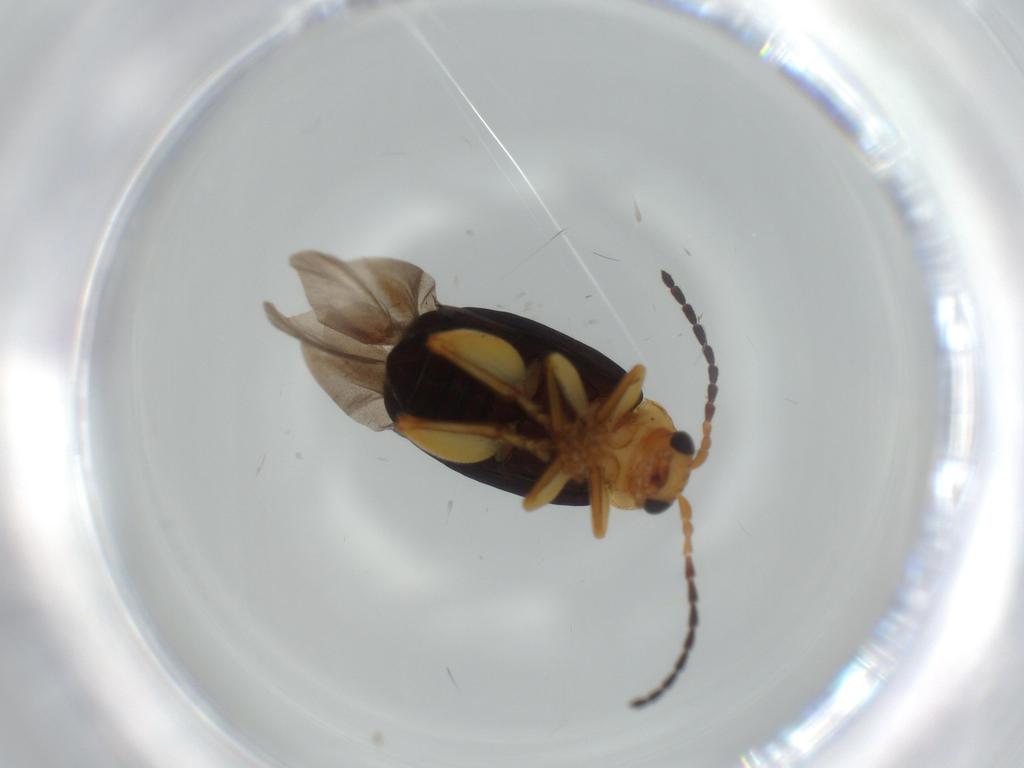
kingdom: Animalia
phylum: Arthropoda
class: Insecta
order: Coleoptera
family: Chrysomelidae
